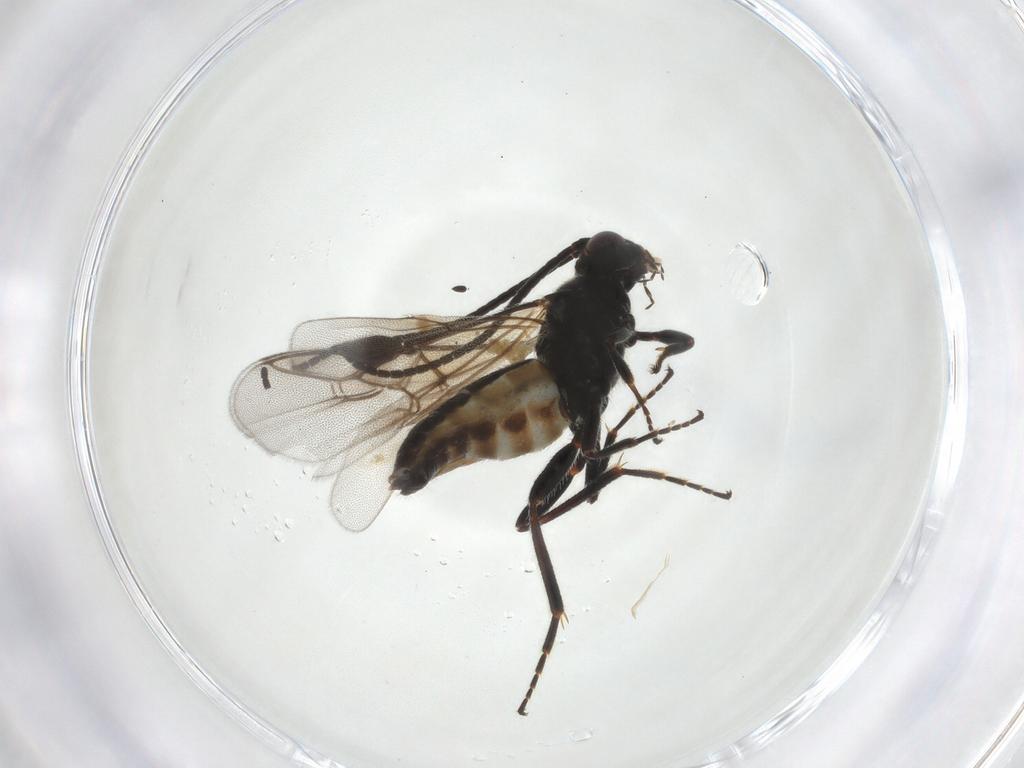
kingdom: Animalia
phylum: Arthropoda
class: Insecta
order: Hymenoptera
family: Braconidae
